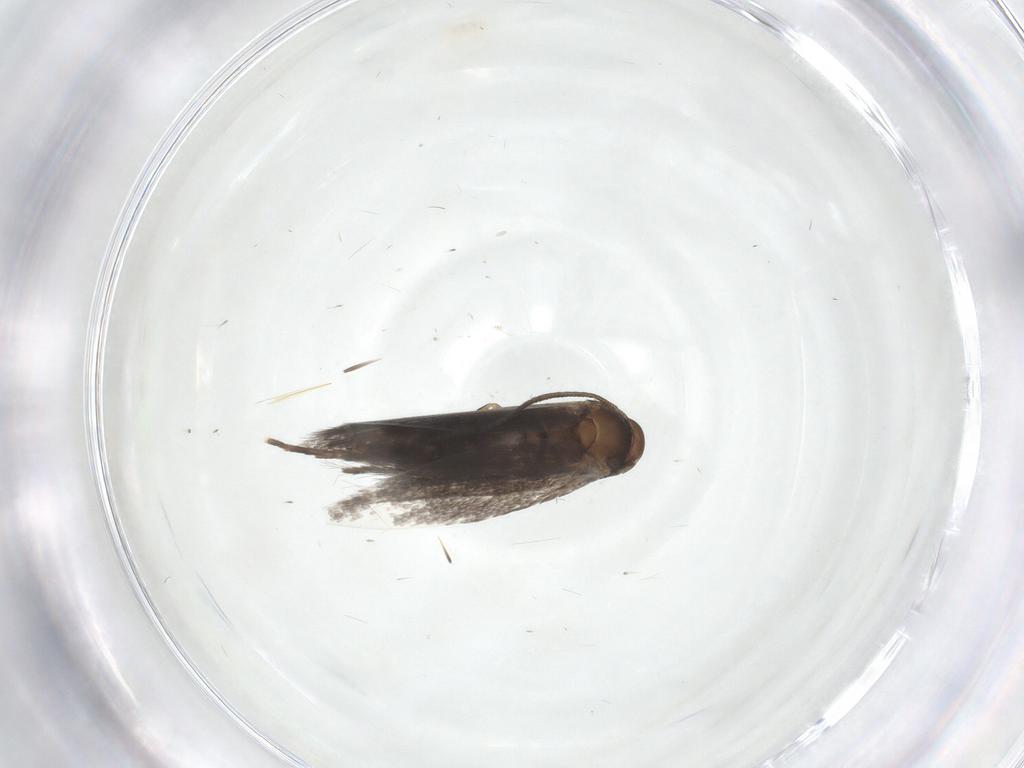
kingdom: Animalia
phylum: Arthropoda
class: Insecta
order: Lepidoptera
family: Elachistidae
